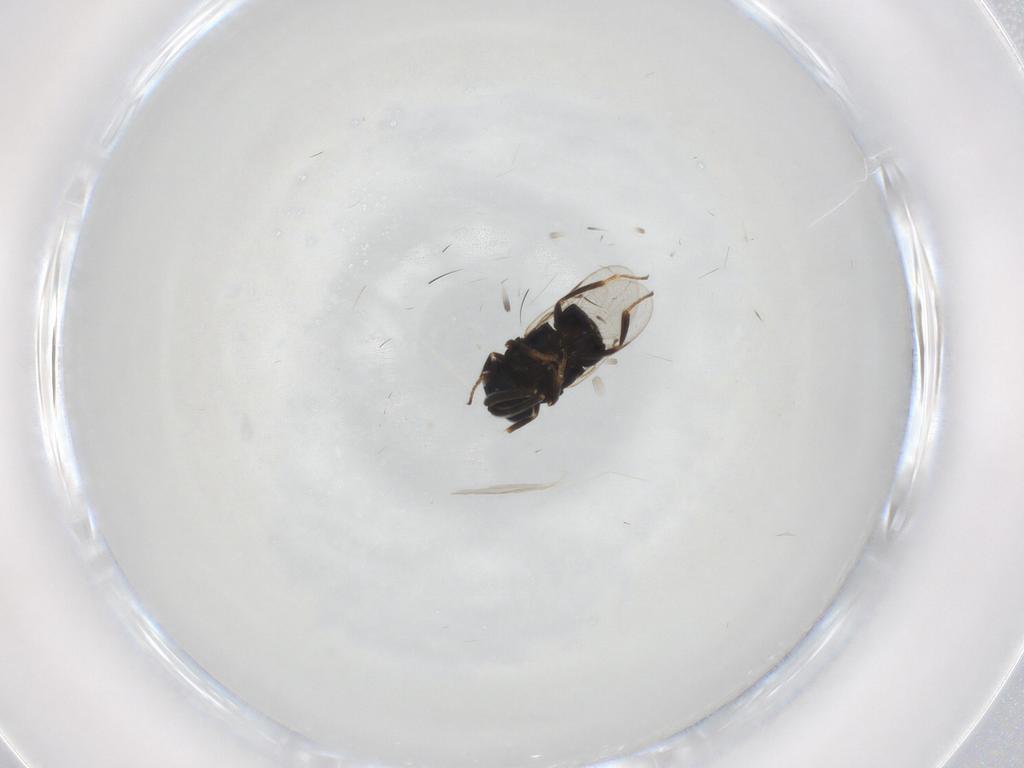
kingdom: Animalia
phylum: Arthropoda
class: Insecta
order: Hymenoptera
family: Encyrtidae
